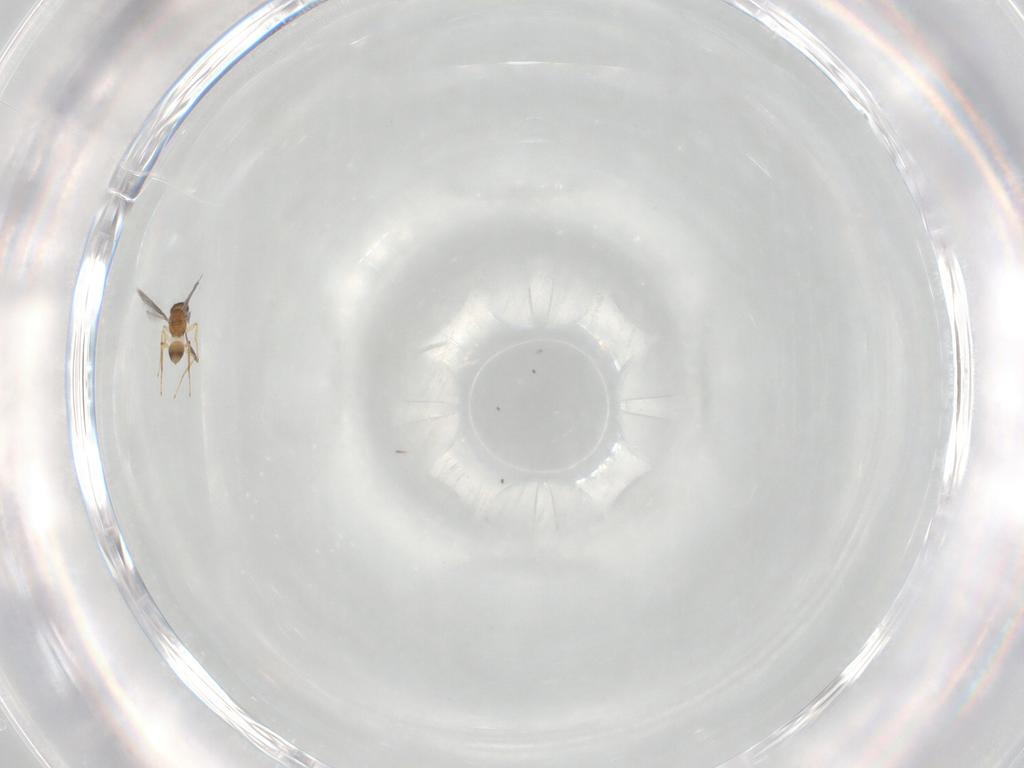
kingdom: Animalia
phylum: Arthropoda
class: Insecta
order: Hymenoptera
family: Mymaridae
